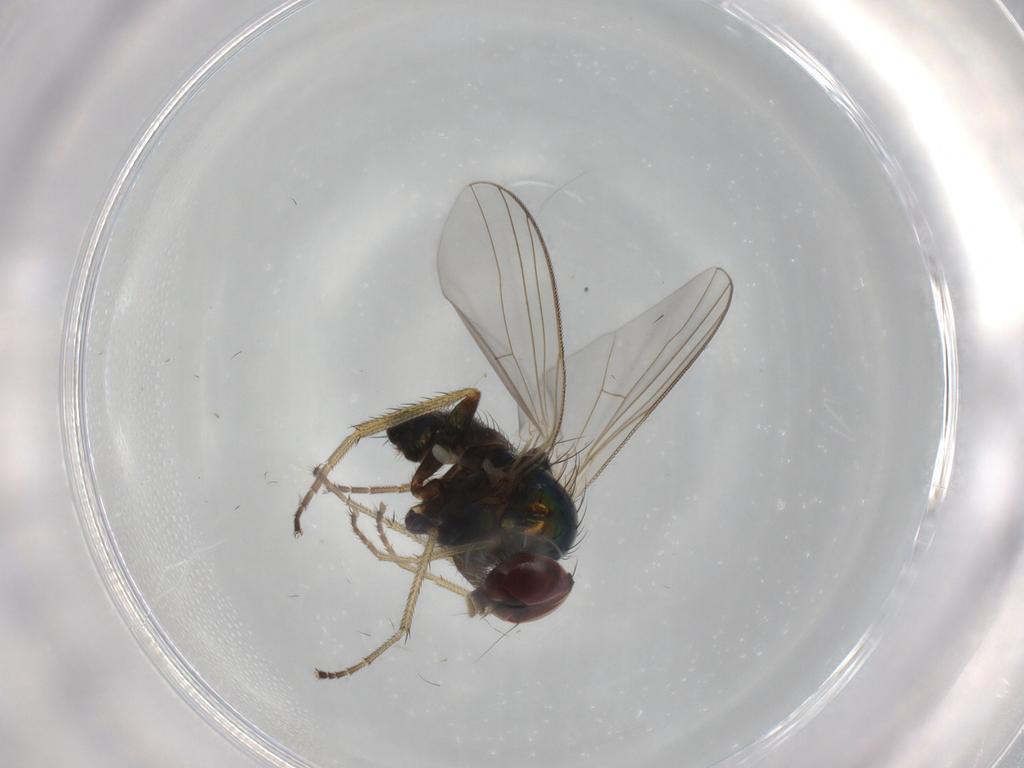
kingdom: Animalia
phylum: Arthropoda
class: Insecta
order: Diptera
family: Dolichopodidae
